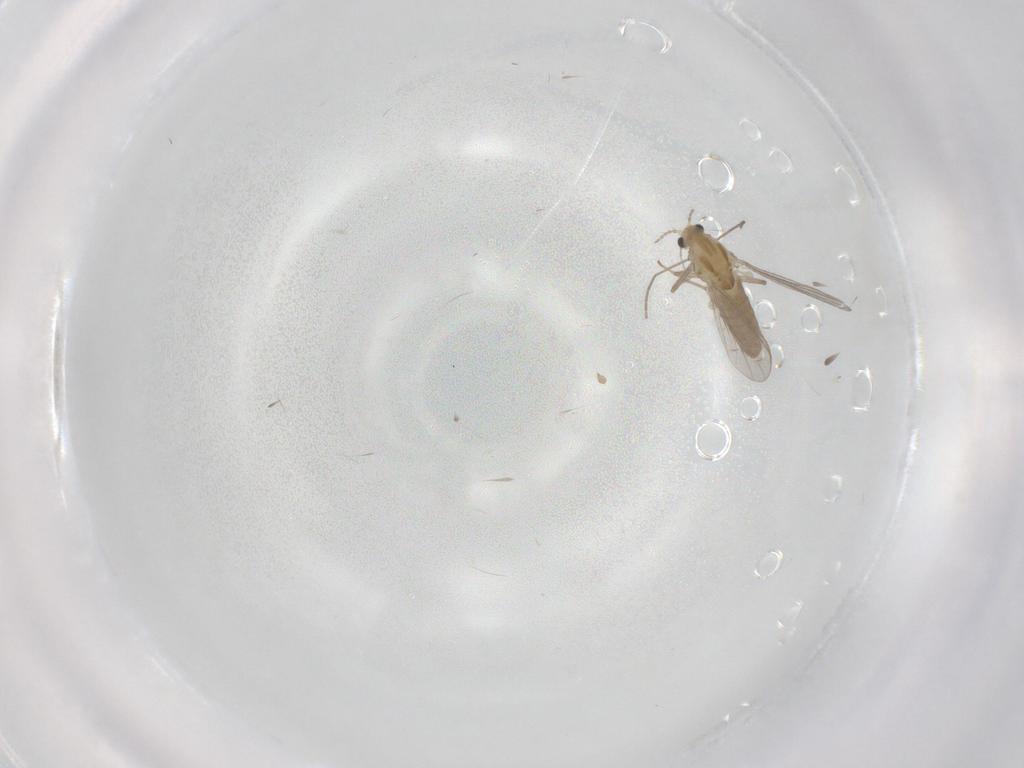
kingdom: Animalia
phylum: Arthropoda
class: Insecta
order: Diptera
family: Chironomidae
